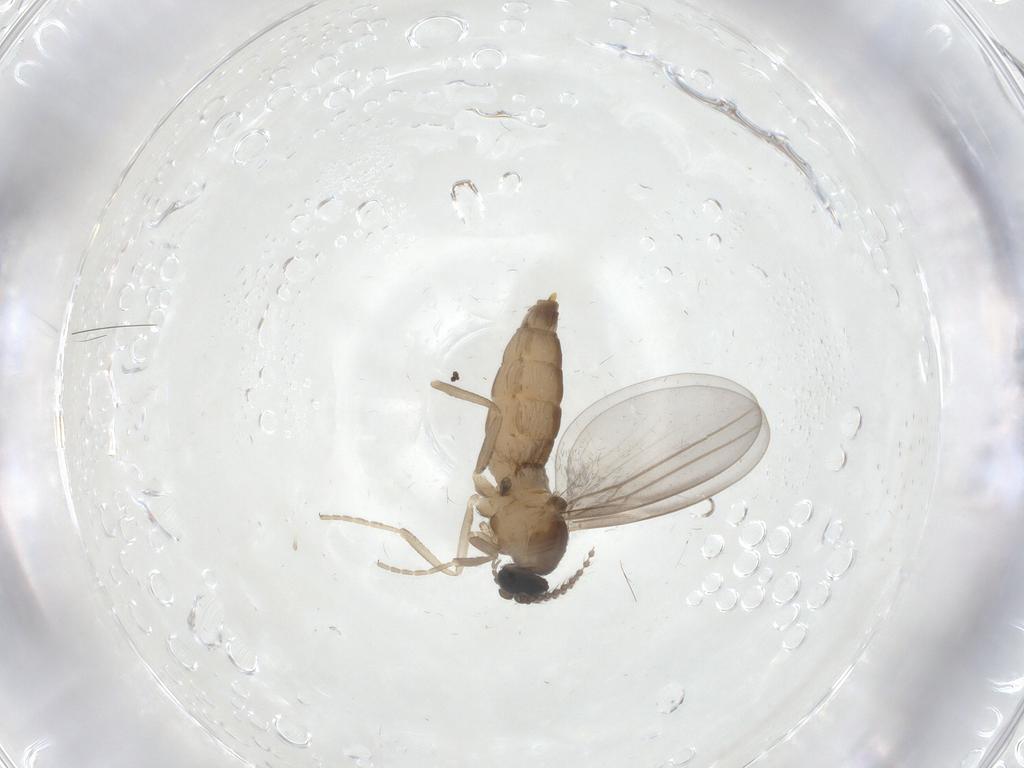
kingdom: Animalia
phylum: Arthropoda
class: Insecta
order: Diptera
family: Cecidomyiidae
